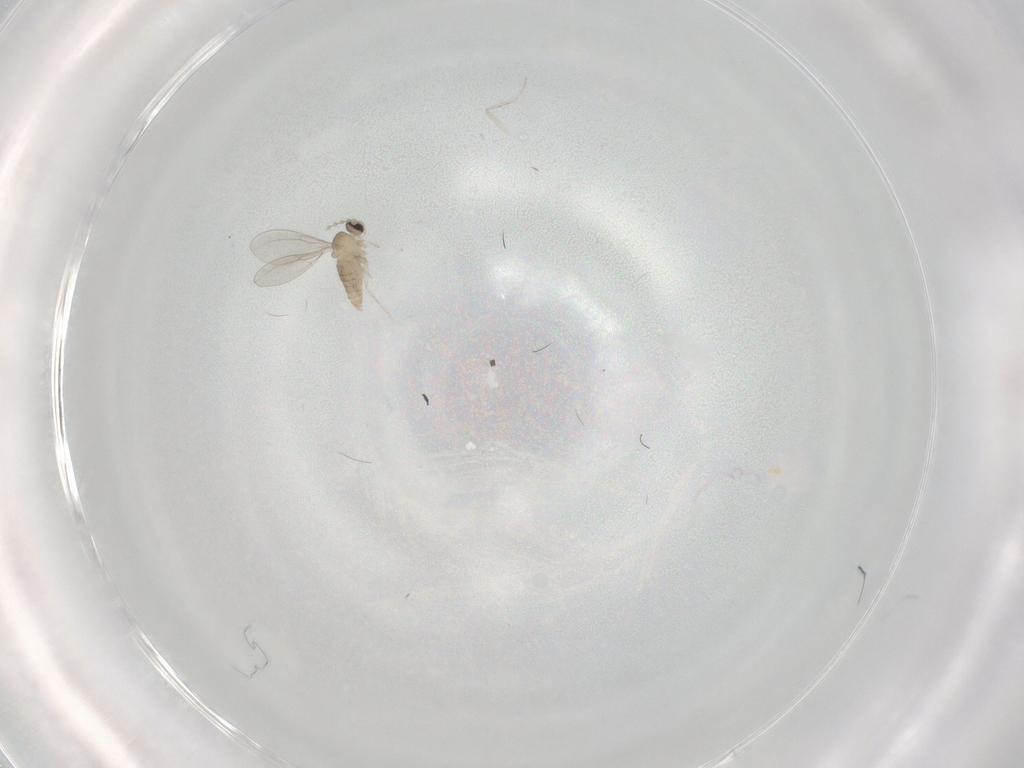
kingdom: Animalia
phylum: Arthropoda
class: Insecta
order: Diptera
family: Cecidomyiidae
